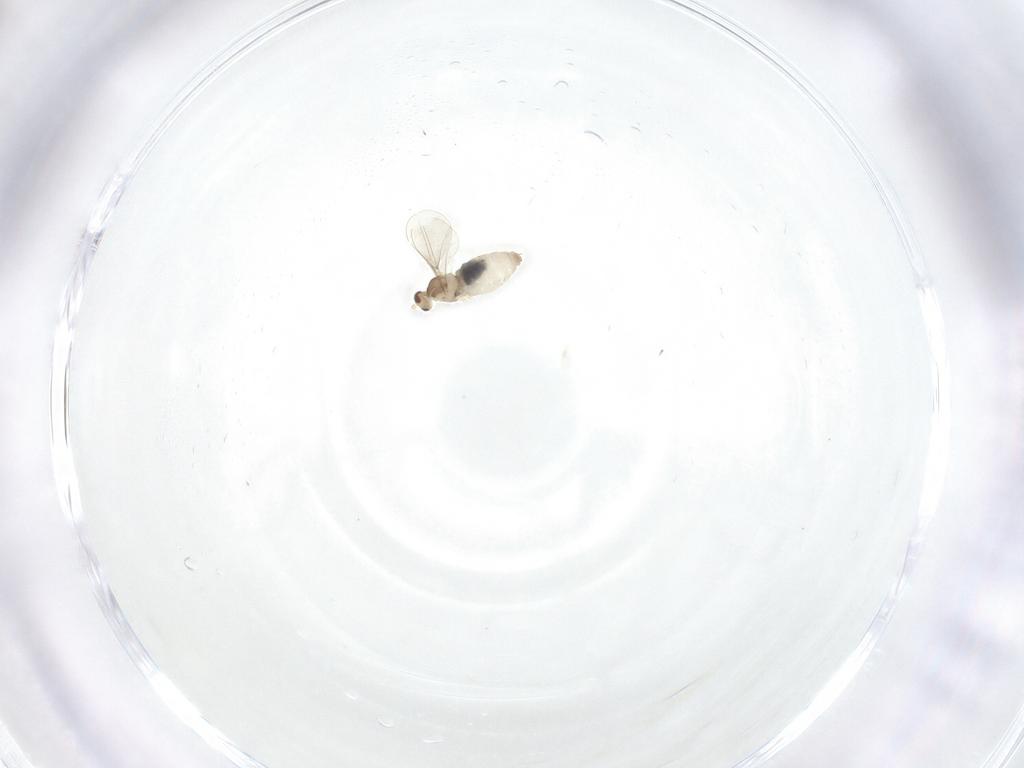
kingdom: Animalia
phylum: Arthropoda
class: Insecta
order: Diptera
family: Cecidomyiidae
